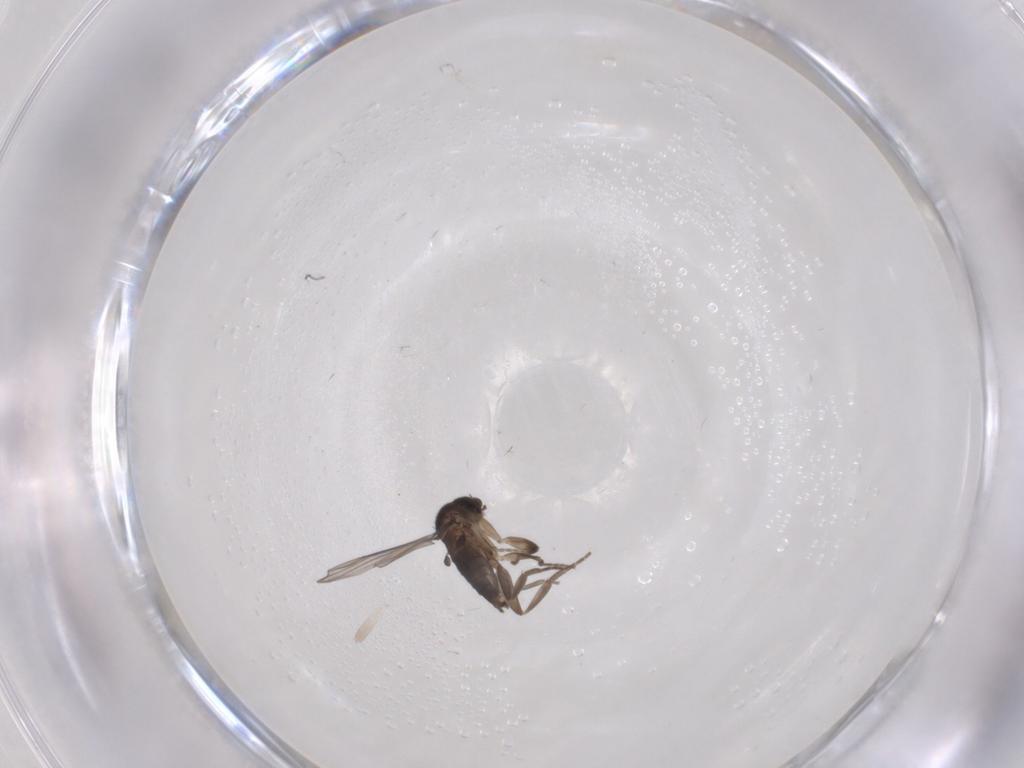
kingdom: Animalia
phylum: Arthropoda
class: Insecta
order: Diptera
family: Phoridae
